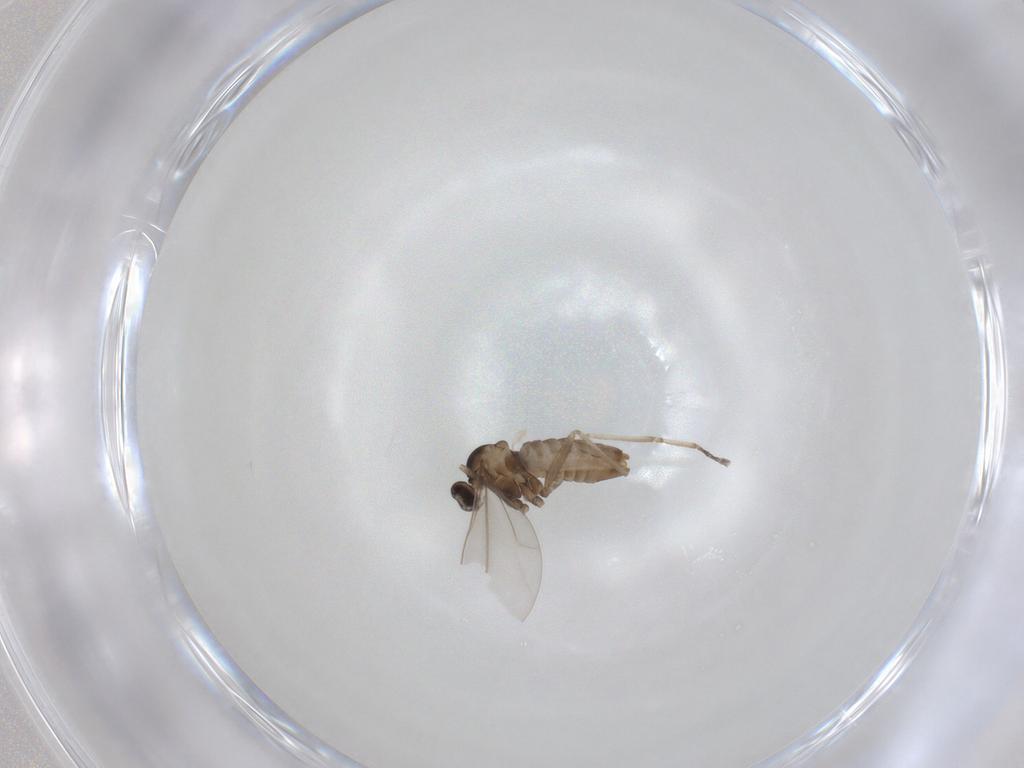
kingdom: Animalia
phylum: Arthropoda
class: Insecta
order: Diptera
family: Cecidomyiidae
